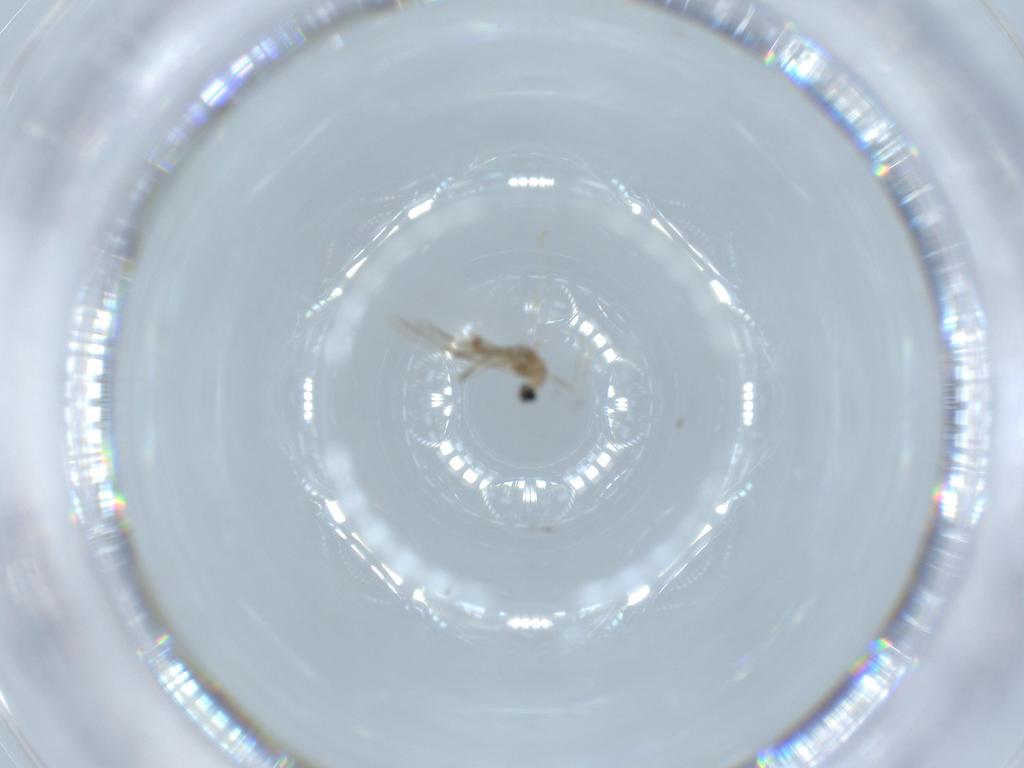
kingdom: Animalia
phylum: Arthropoda
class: Insecta
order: Diptera
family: Cecidomyiidae
